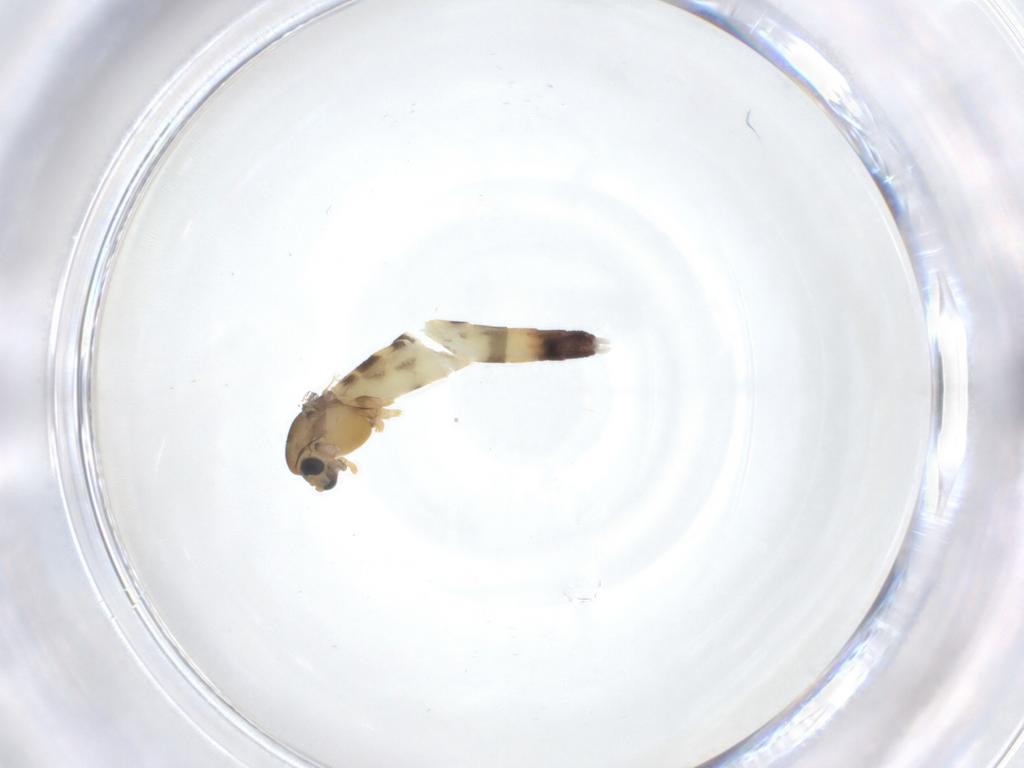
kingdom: Animalia
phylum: Arthropoda
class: Insecta
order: Diptera
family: Chironomidae
